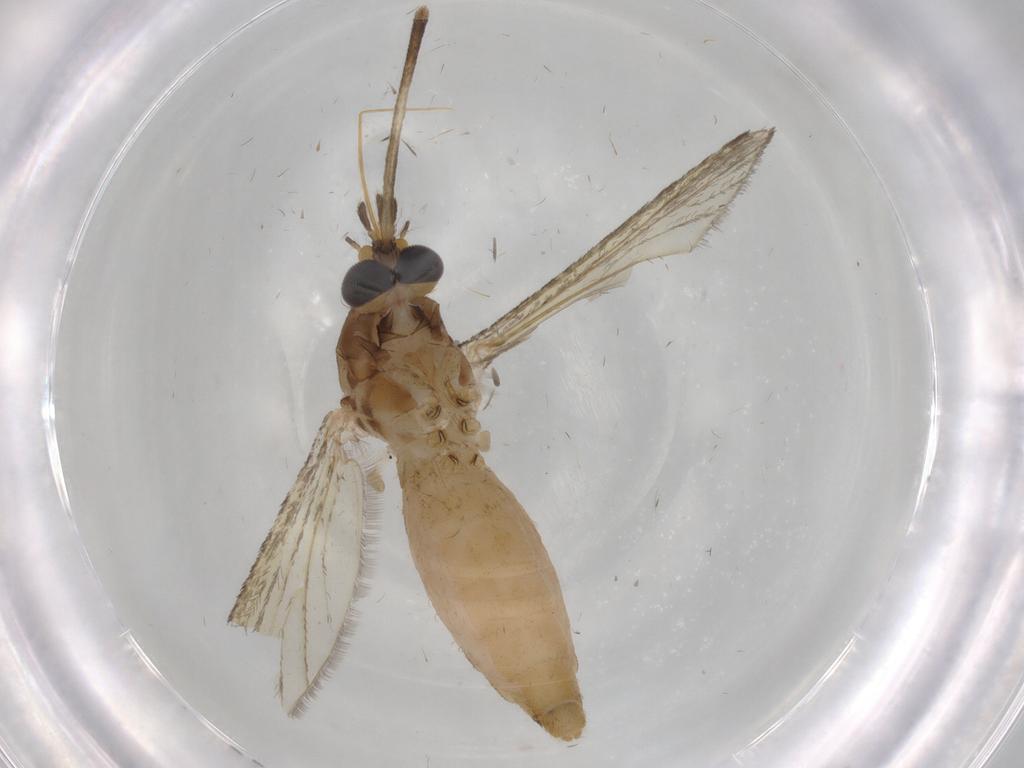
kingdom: Animalia
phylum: Arthropoda
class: Insecta
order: Diptera
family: Culicidae
